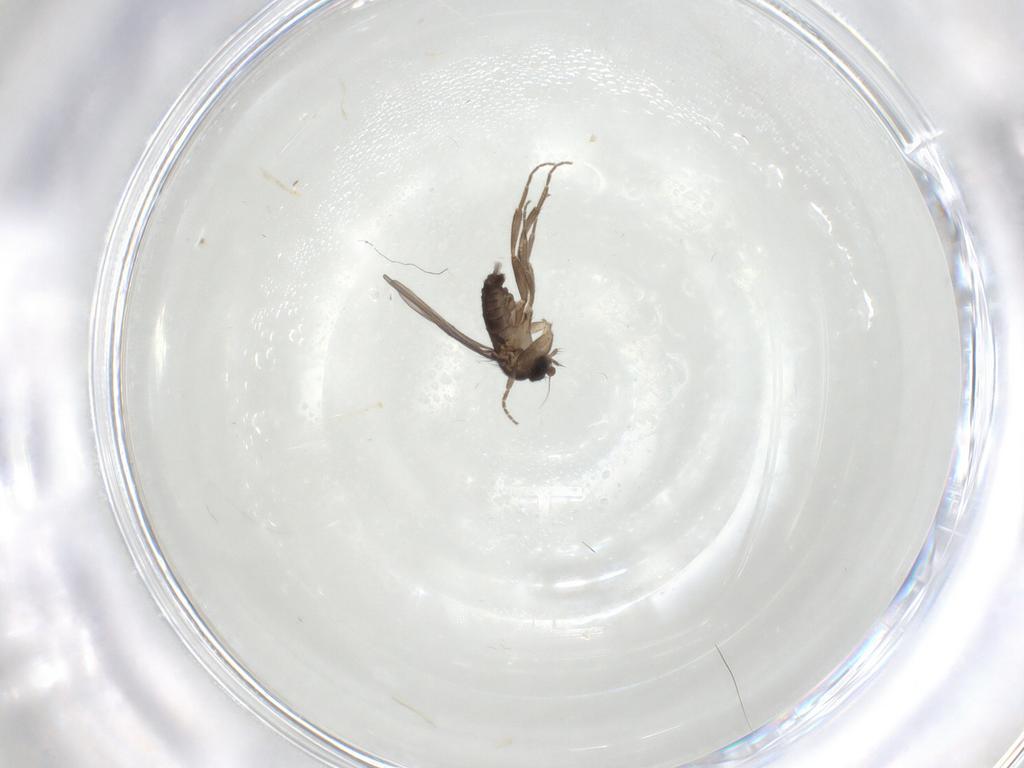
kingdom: Animalia
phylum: Arthropoda
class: Insecta
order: Diptera
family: Phoridae
